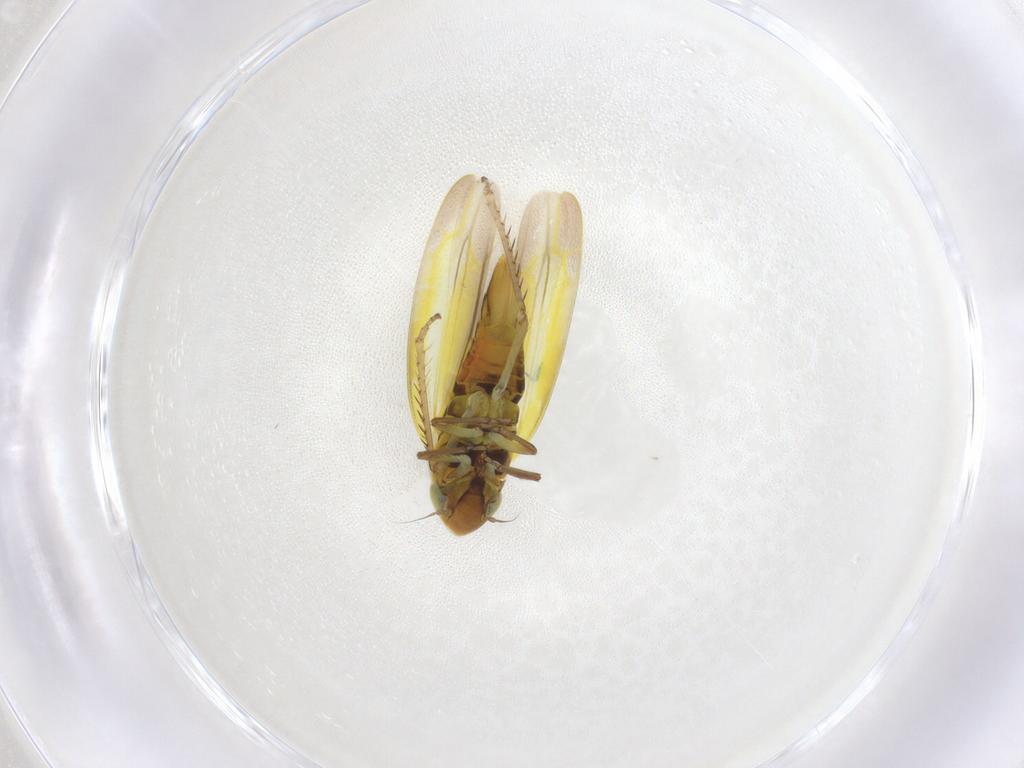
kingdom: Animalia
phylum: Arthropoda
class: Insecta
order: Hemiptera
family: Cicadellidae
